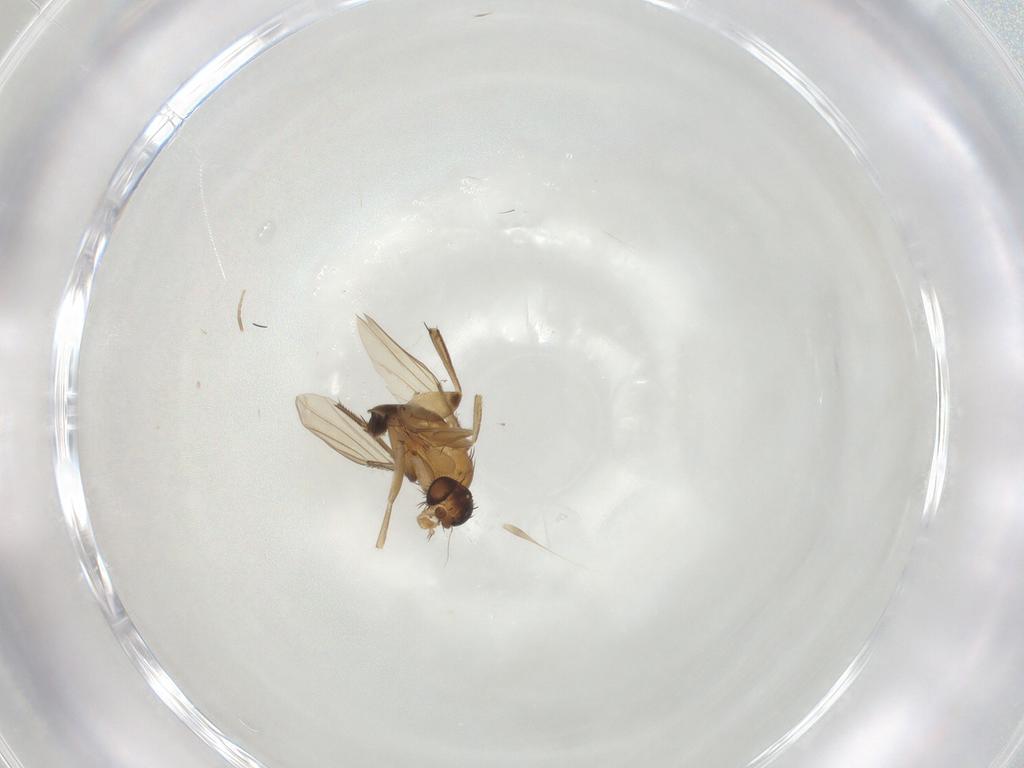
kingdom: Animalia
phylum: Arthropoda
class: Insecta
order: Diptera
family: Phoridae
